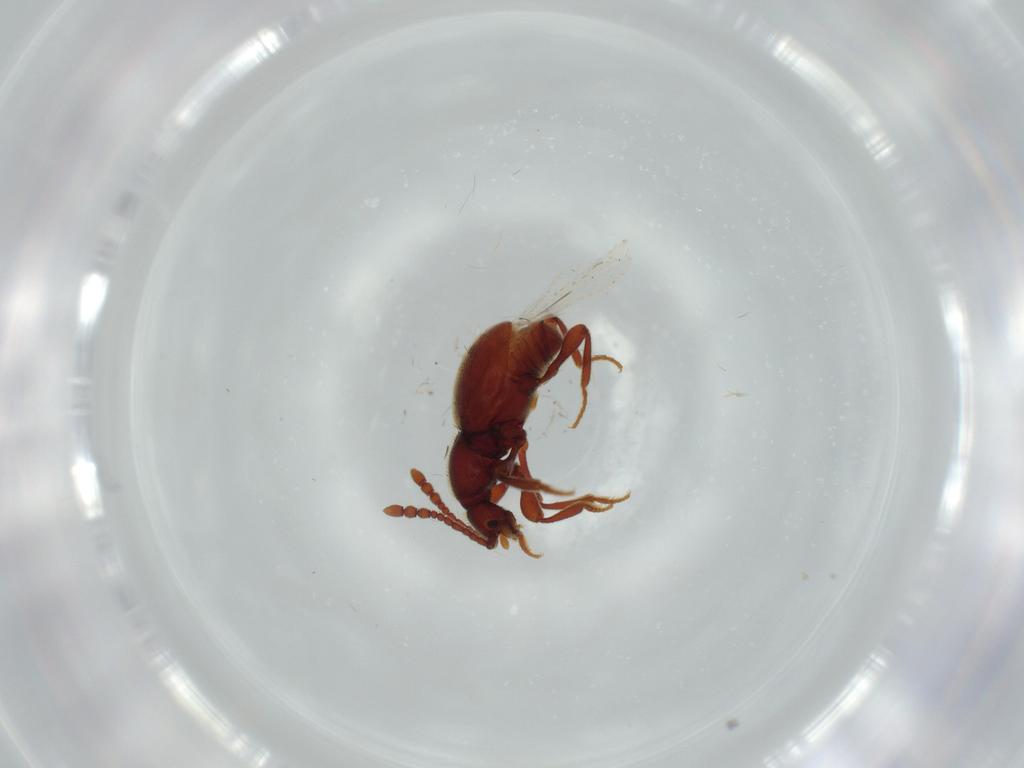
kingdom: Animalia
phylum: Arthropoda
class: Insecta
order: Coleoptera
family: Staphylinidae
